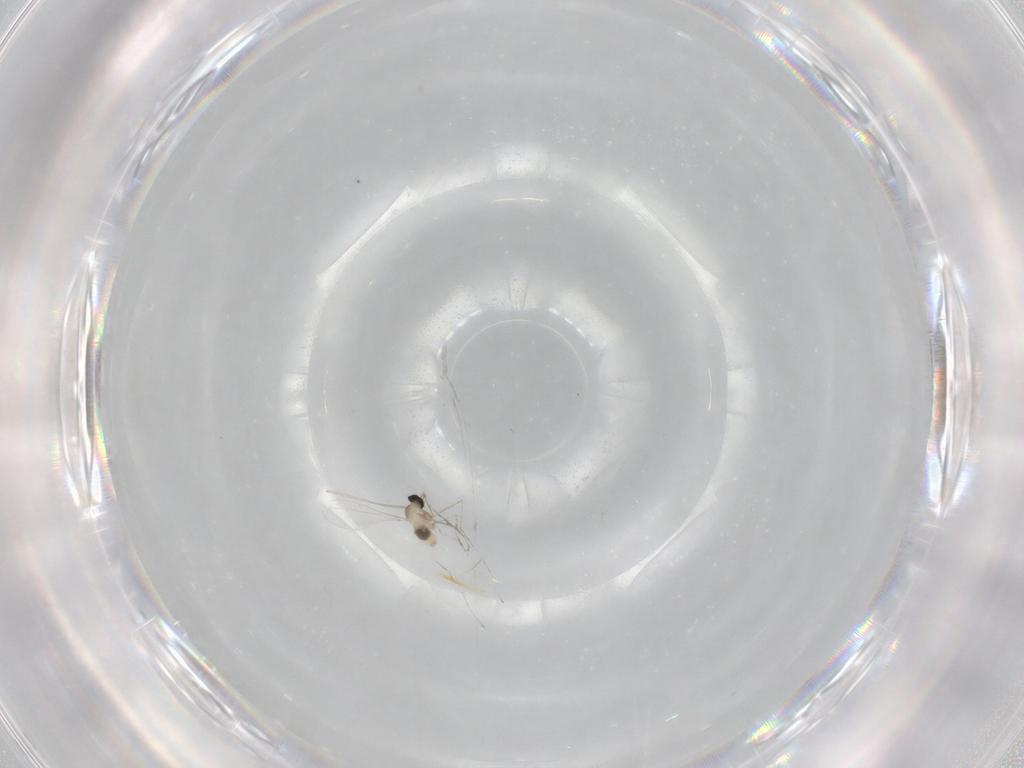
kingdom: Animalia
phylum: Arthropoda
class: Insecta
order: Diptera
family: Cecidomyiidae
